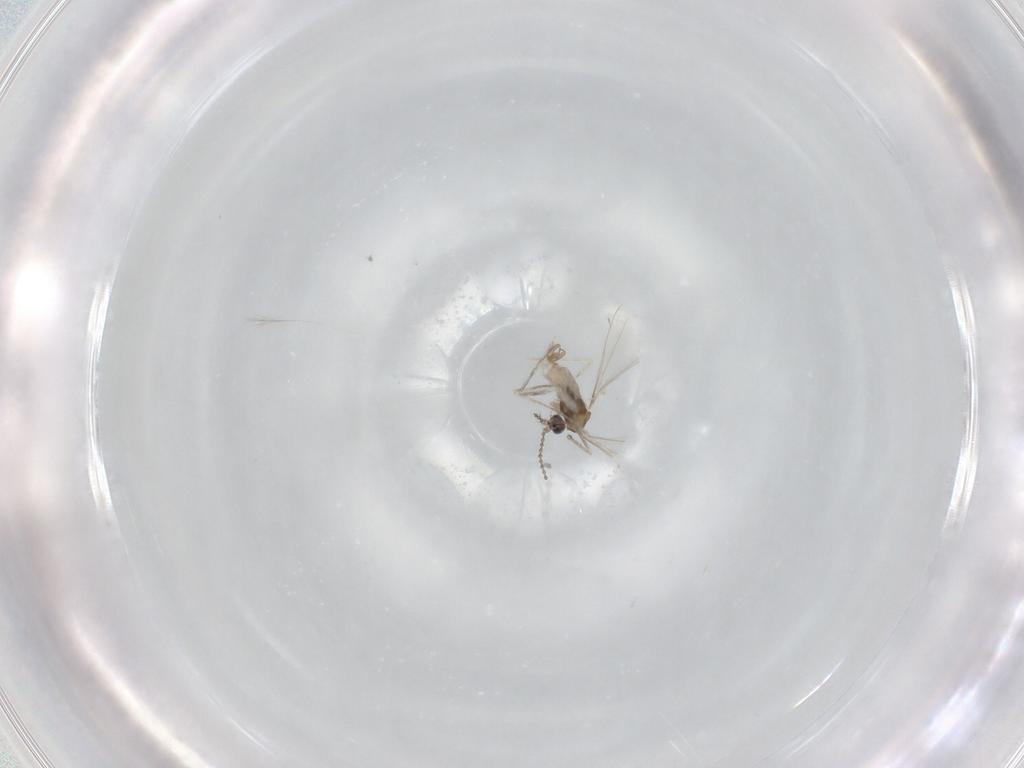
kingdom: Animalia
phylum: Arthropoda
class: Insecta
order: Diptera
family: Cecidomyiidae
